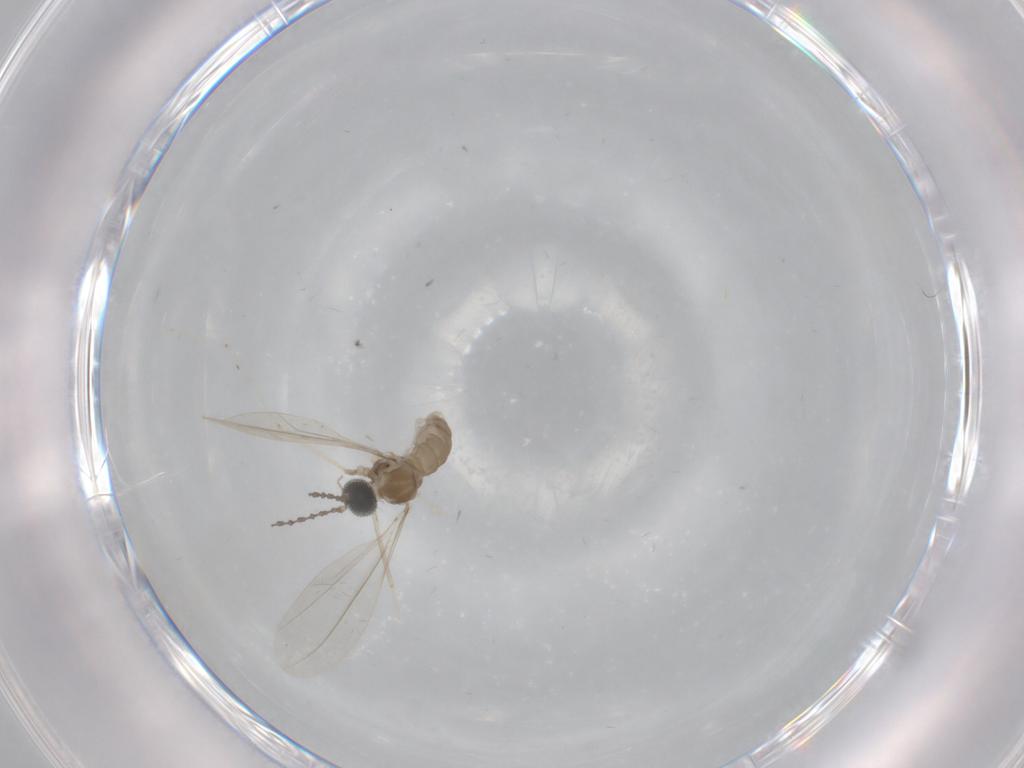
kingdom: Animalia
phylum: Arthropoda
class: Insecta
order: Diptera
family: Cecidomyiidae
